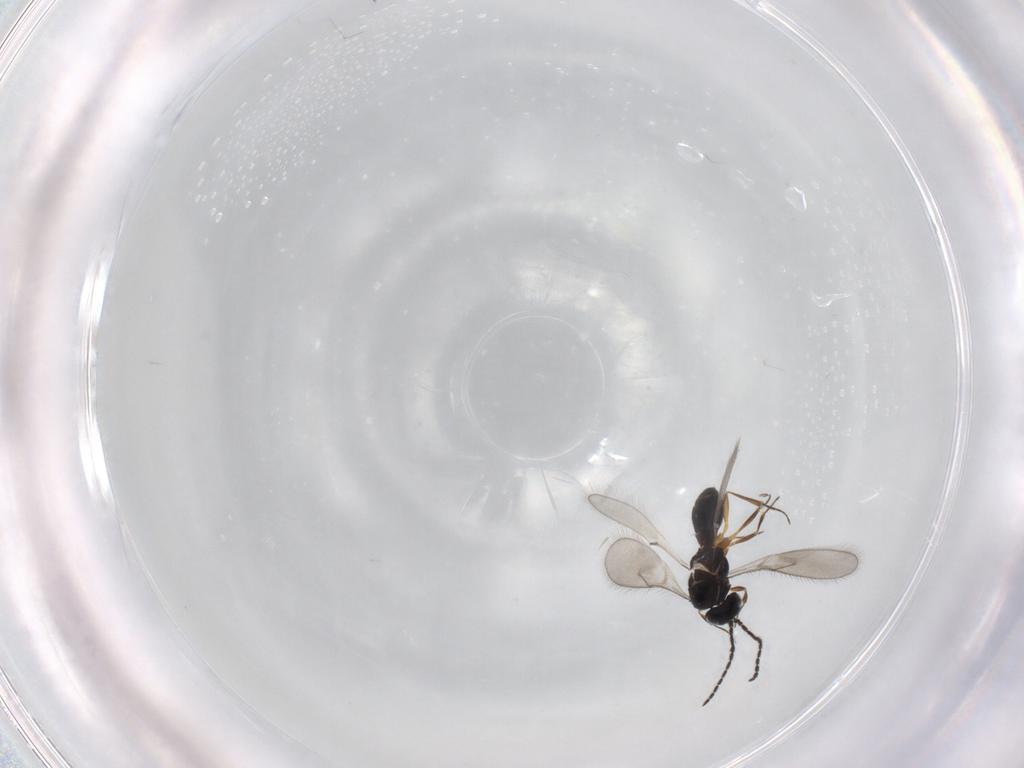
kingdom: Animalia
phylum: Arthropoda
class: Insecta
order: Hymenoptera
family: Scelionidae
